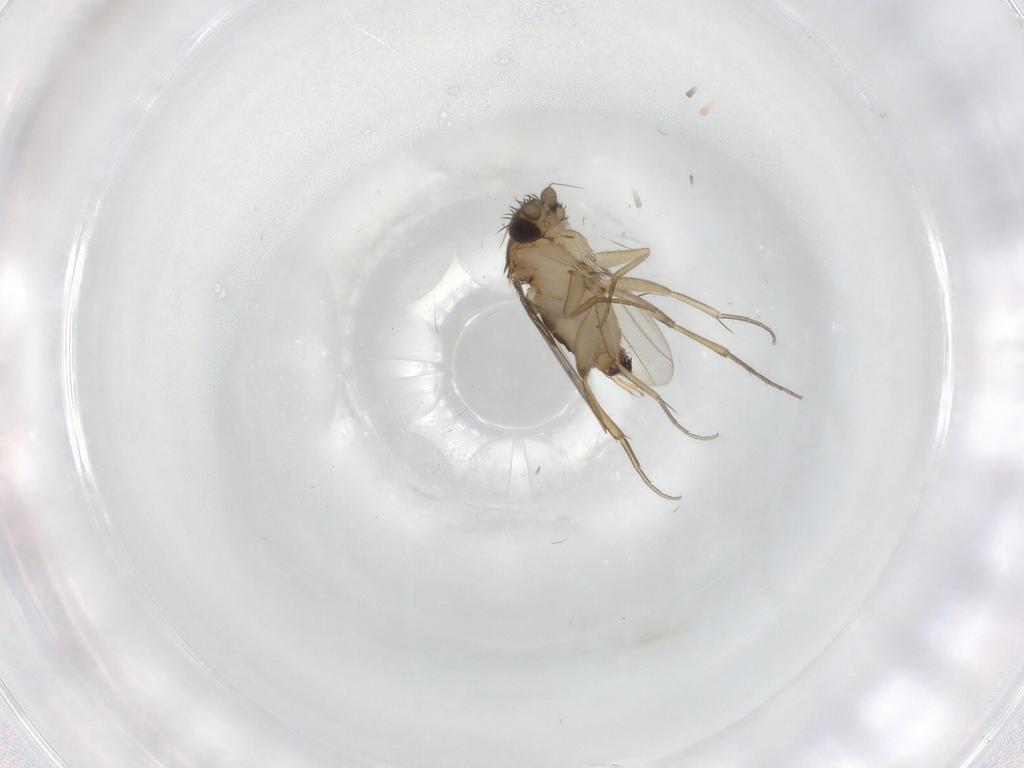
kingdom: Animalia
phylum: Arthropoda
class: Insecta
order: Diptera
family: Phoridae
